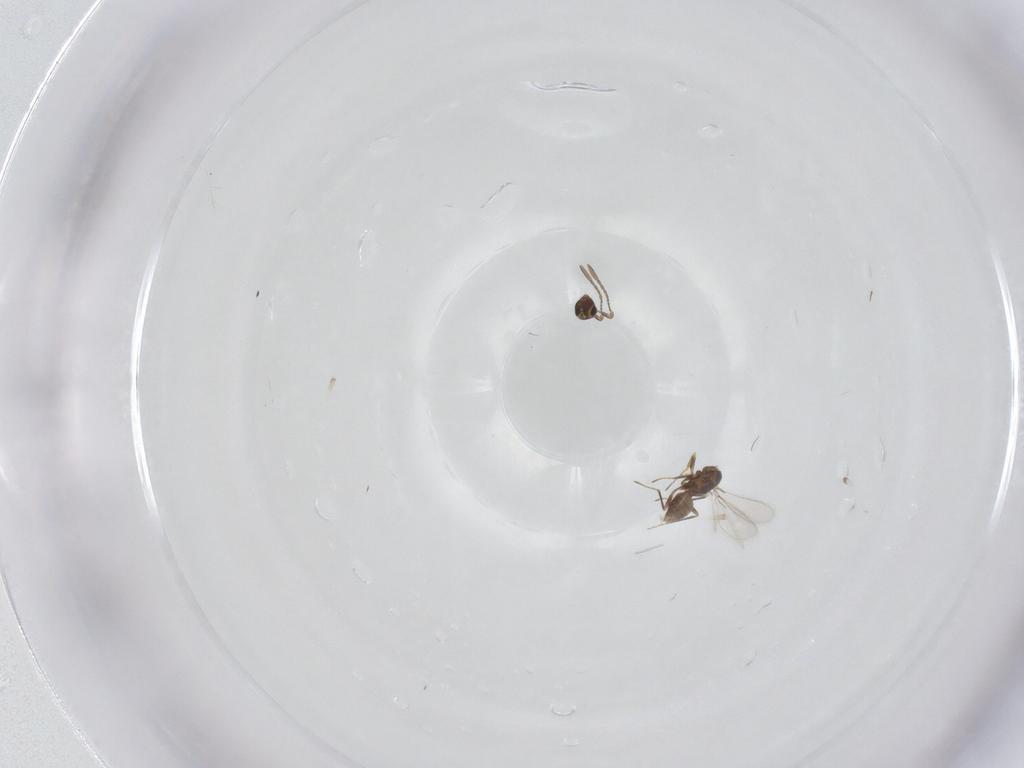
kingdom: Animalia
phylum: Arthropoda
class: Insecta
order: Hymenoptera
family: Mymaridae
